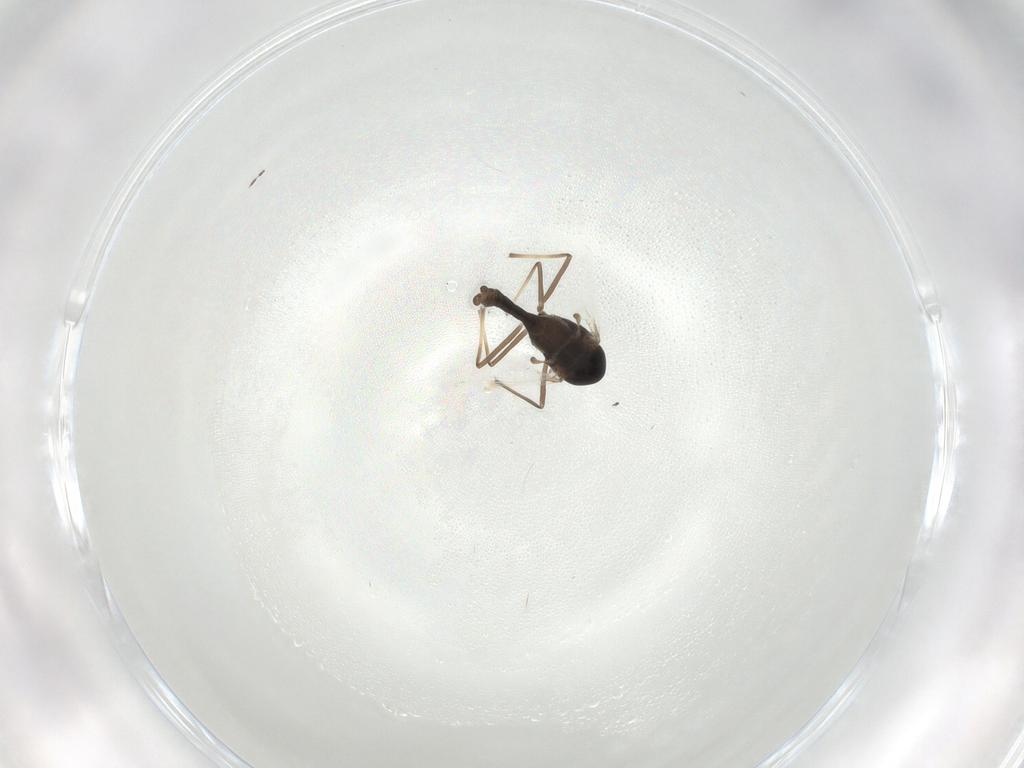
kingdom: Animalia
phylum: Arthropoda
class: Insecta
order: Diptera
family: Chironomidae
